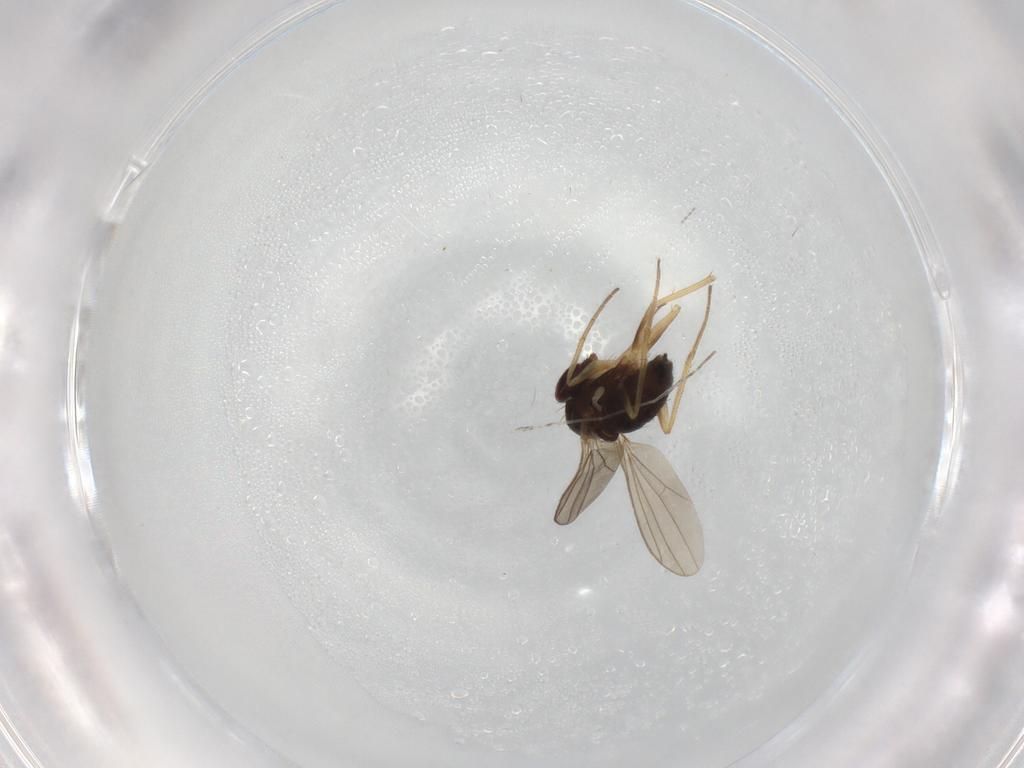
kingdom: Animalia
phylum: Arthropoda
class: Insecta
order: Diptera
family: Dolichopodidae
